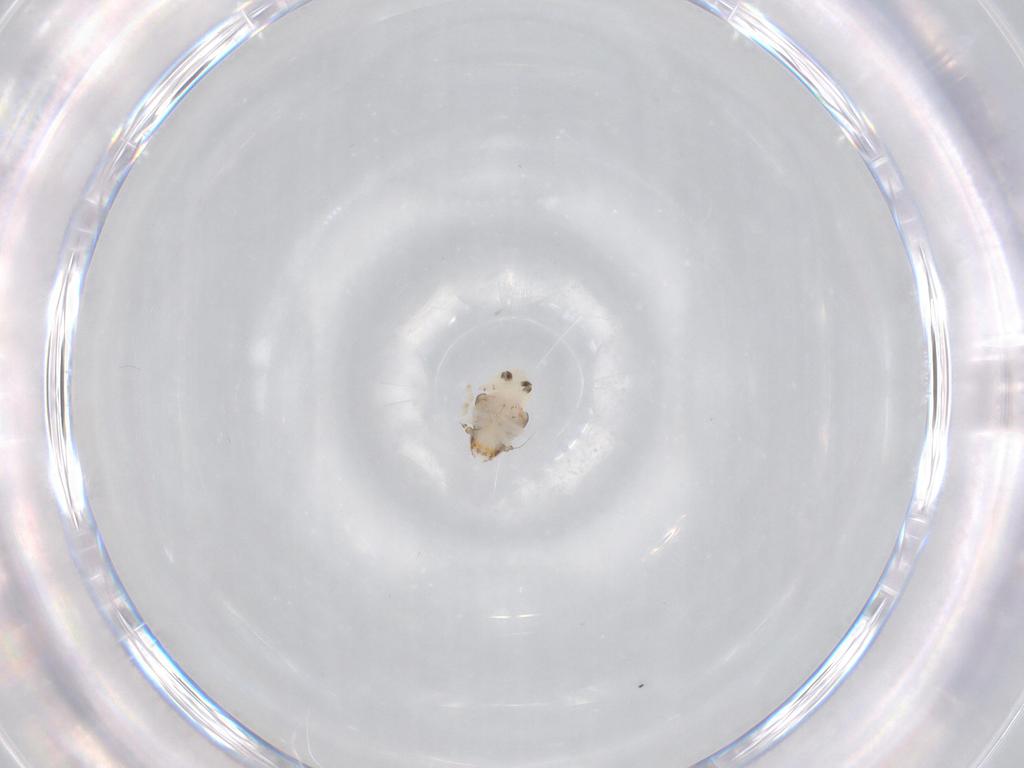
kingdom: Animalia
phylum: Arthropoda
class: Insecta
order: Hemiptera
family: Nogodinidae
